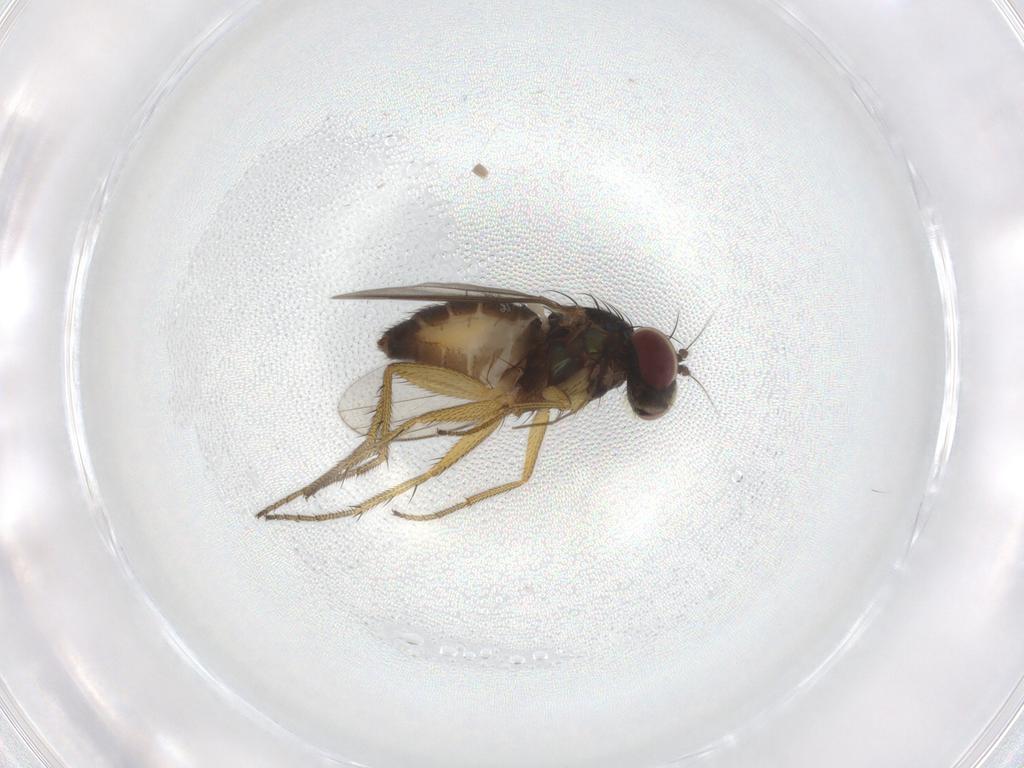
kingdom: Animalia
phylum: Arthropoda
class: Insecta
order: Diptera
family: Chironomidae
